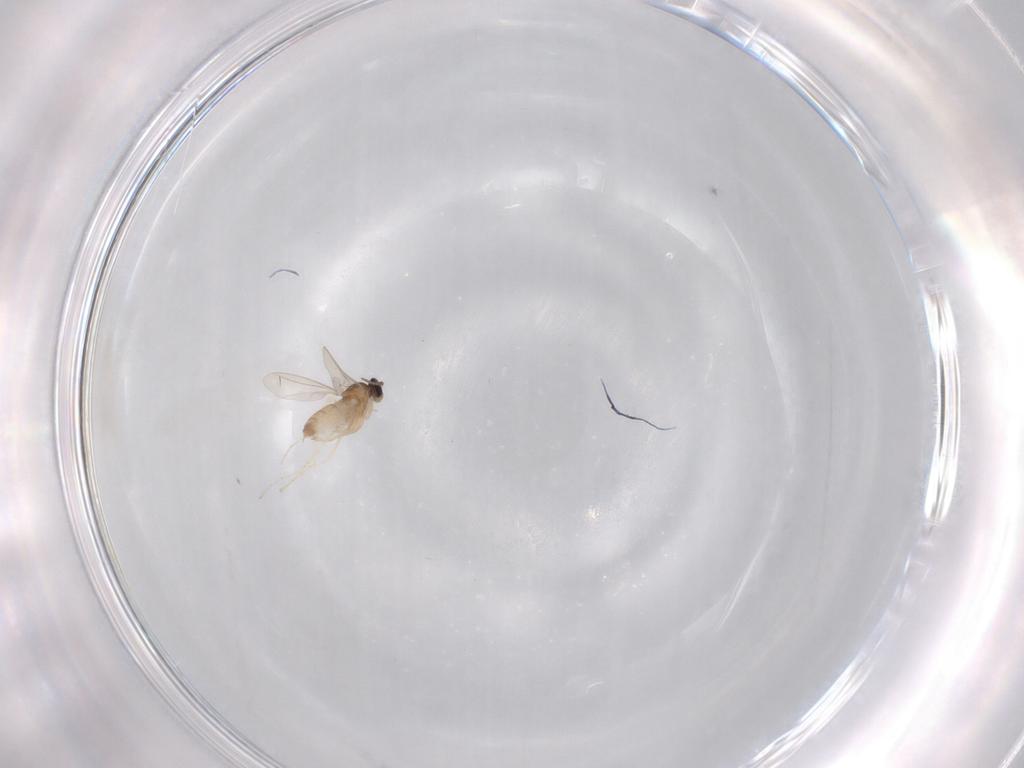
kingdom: Animalia
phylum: Arthropoda
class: Insecta
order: Diptera
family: Cecidomyiidae
